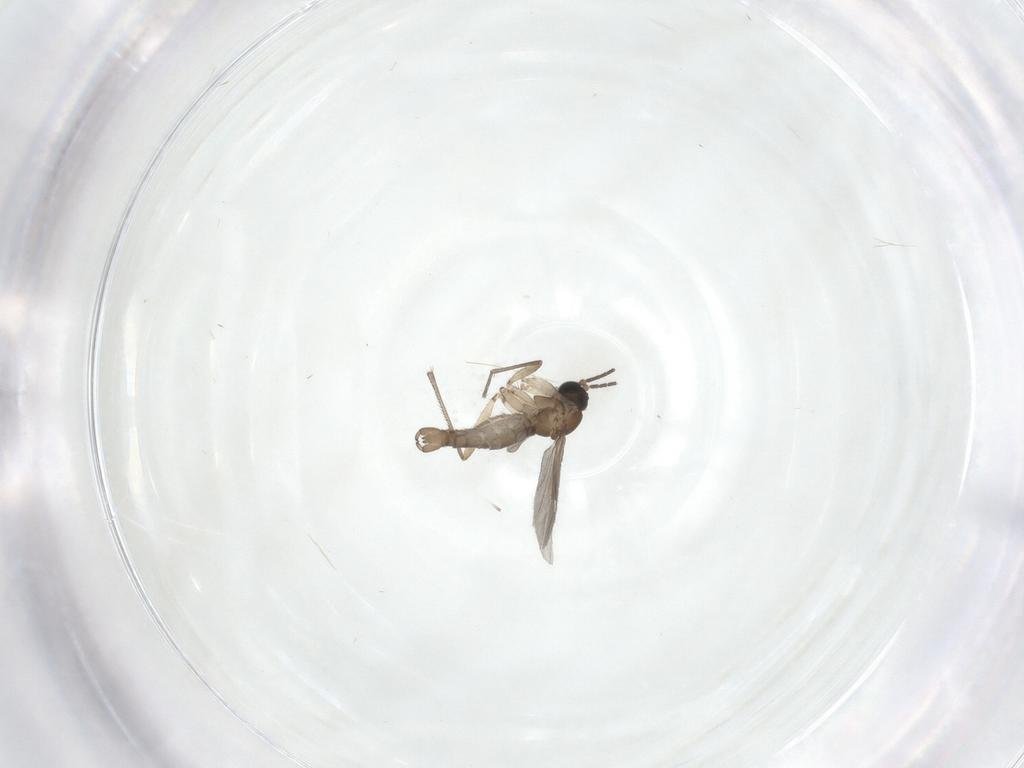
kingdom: Animalia
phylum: Arthropoda
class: Insecta
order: Diptera
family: Sciaridae
